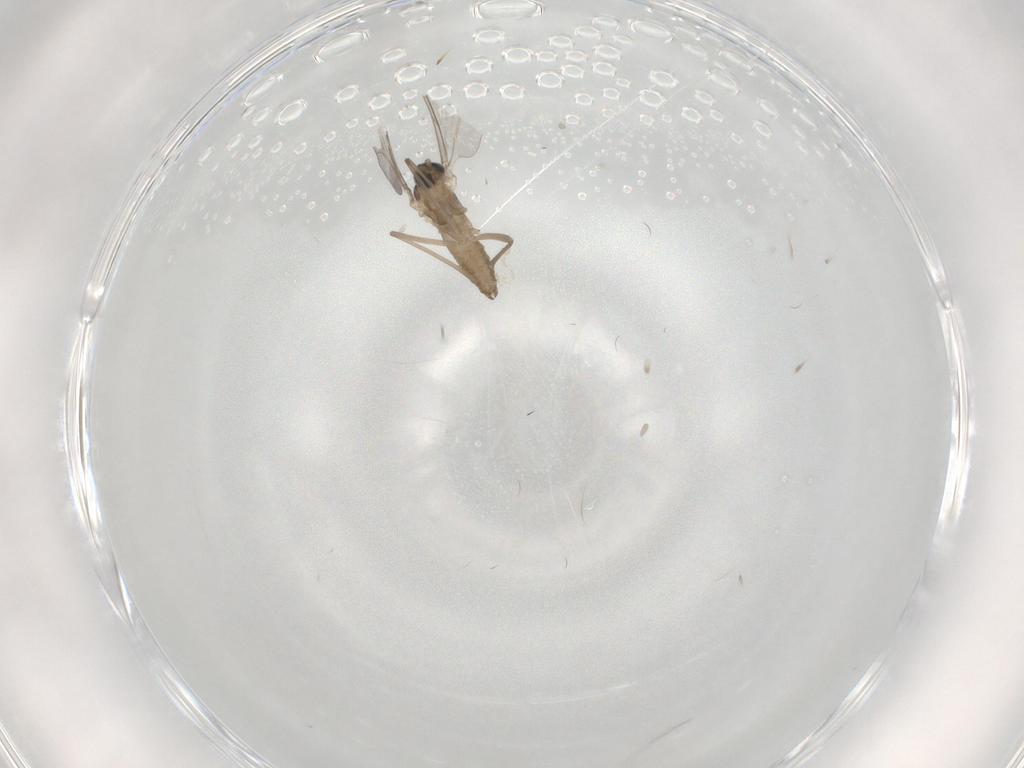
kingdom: Animalia
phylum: Arthropoda
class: Insecta
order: Diptera
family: Cecidomyiidae
